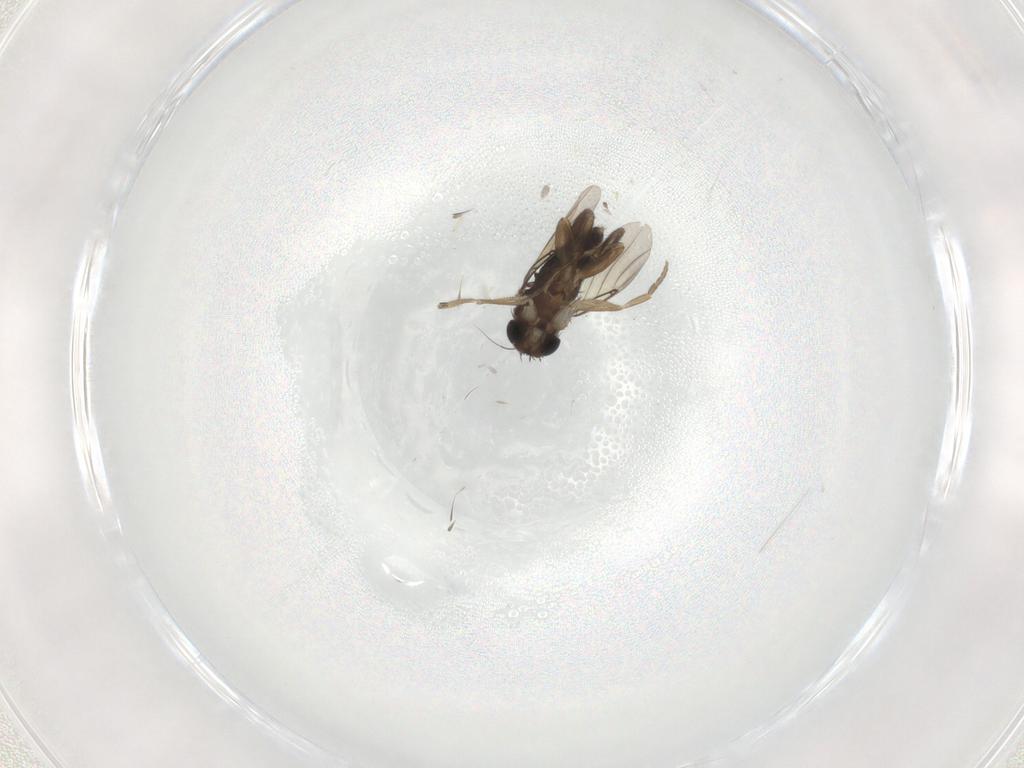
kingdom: Animalia
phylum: Arthropoda
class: Insecta
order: Diptera
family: Phoridae
